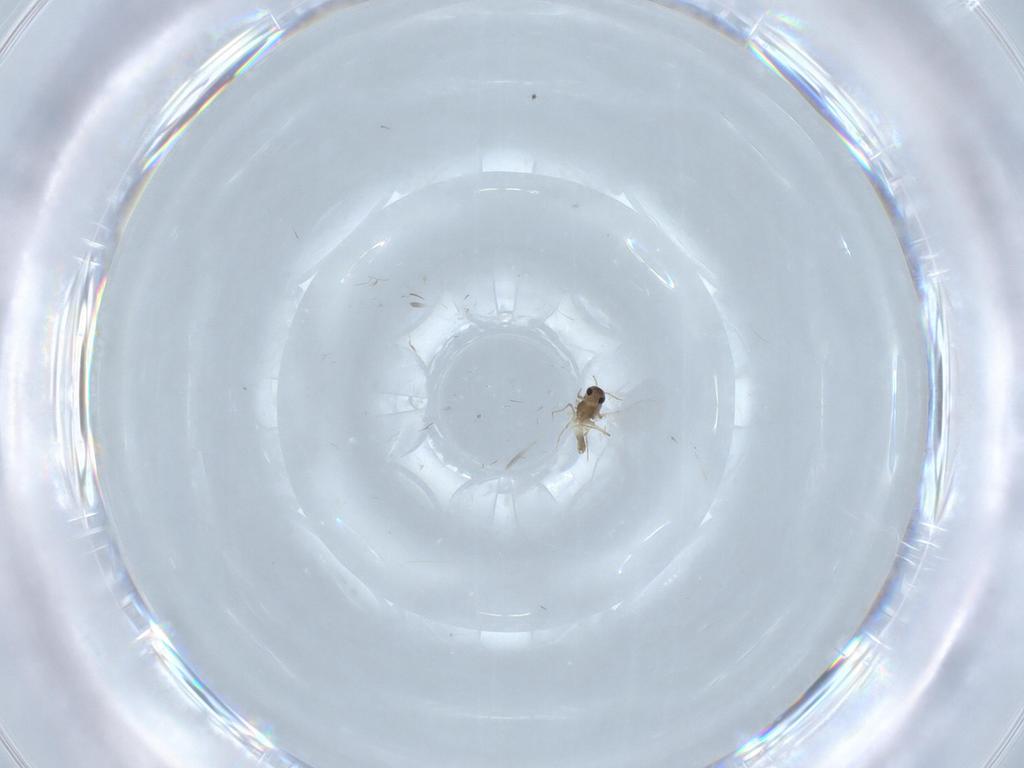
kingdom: Animalia
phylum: Arthropoda
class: Insecta
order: Diptera
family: Chironomidae
